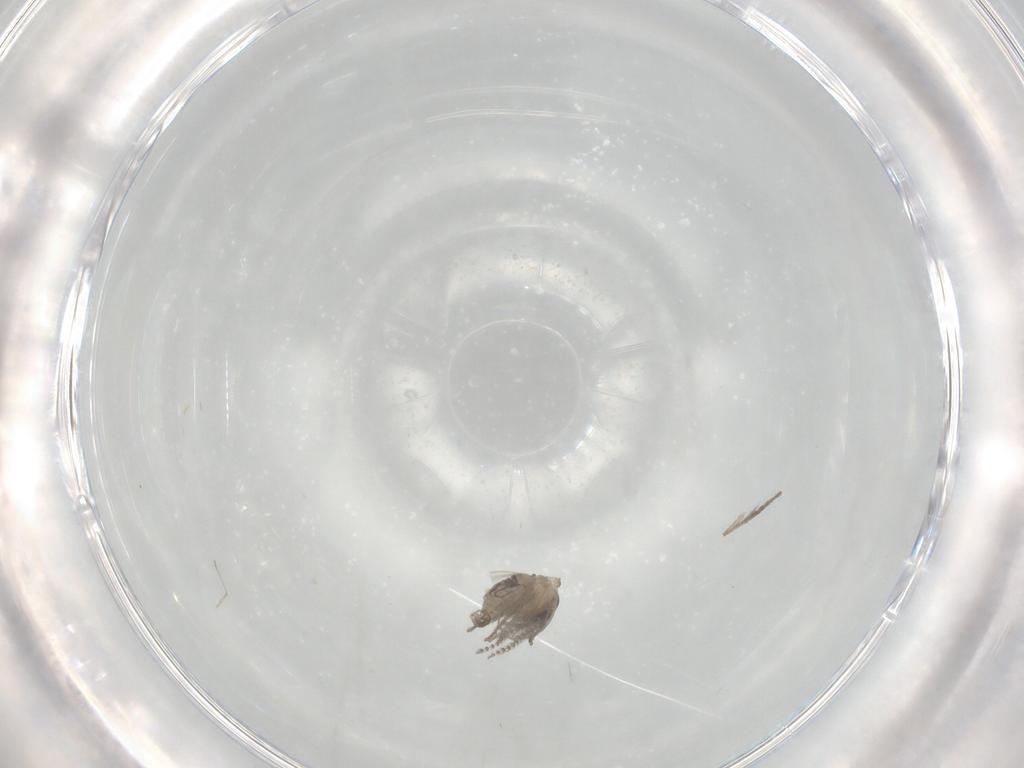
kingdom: Animalia
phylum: Arthropoda
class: Insecta
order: Diptera
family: Psychodidae
